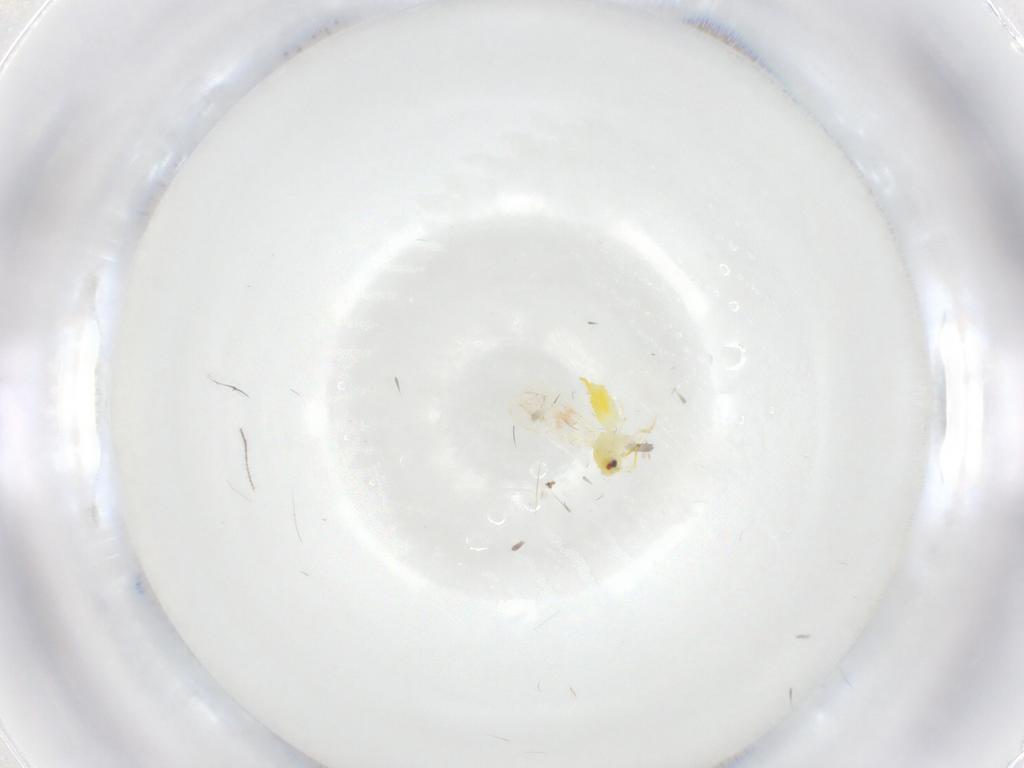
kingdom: Animalia
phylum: Arthropoda
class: Insecta
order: Hemiptera
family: Aleyrodidae
